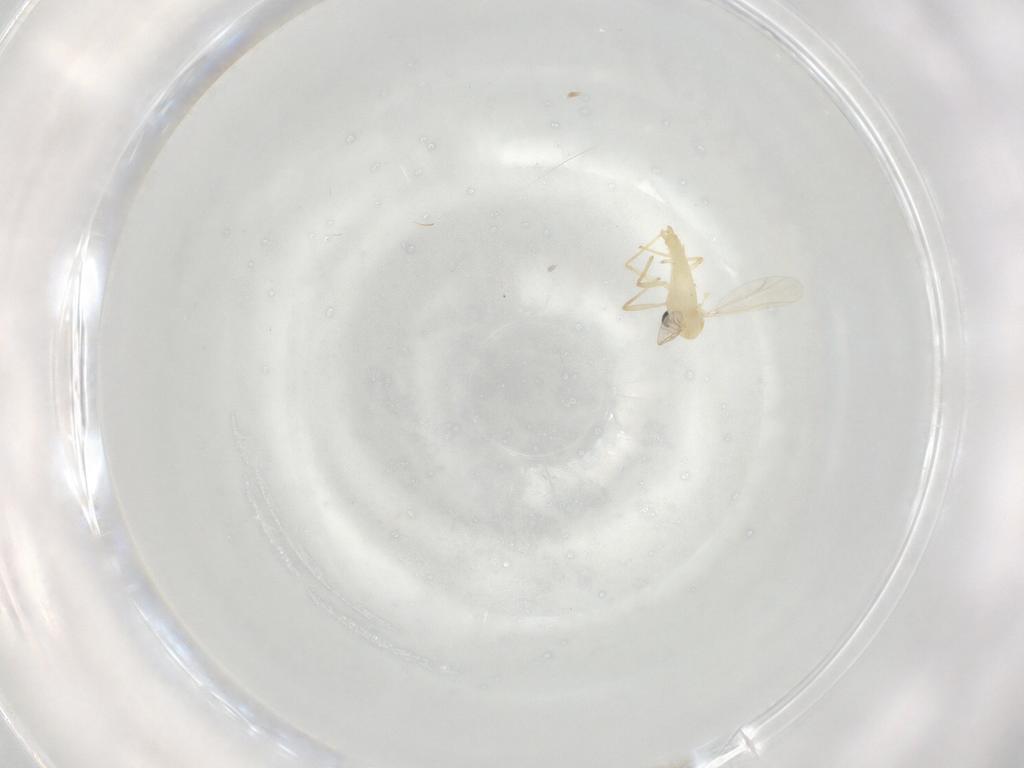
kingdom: Animalia
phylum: Arthropoda
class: Insecta
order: Diptera
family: Chironomidae
